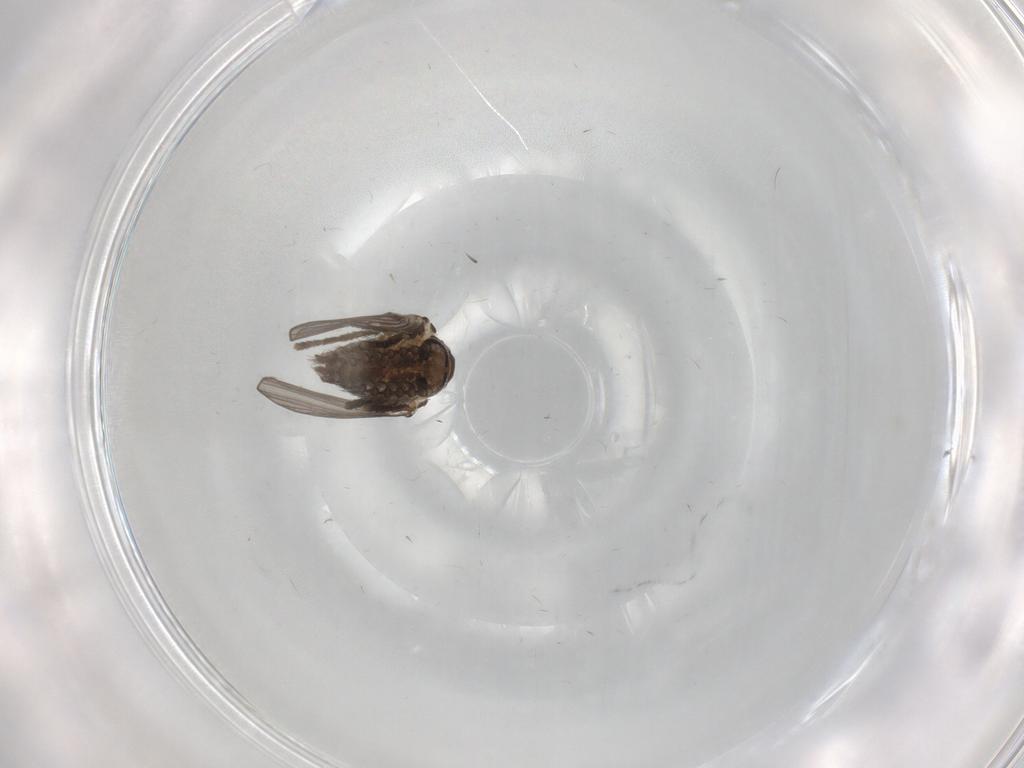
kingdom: Animalia
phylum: Arthropoda
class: Insecta
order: Diptera
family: Psychodidae
